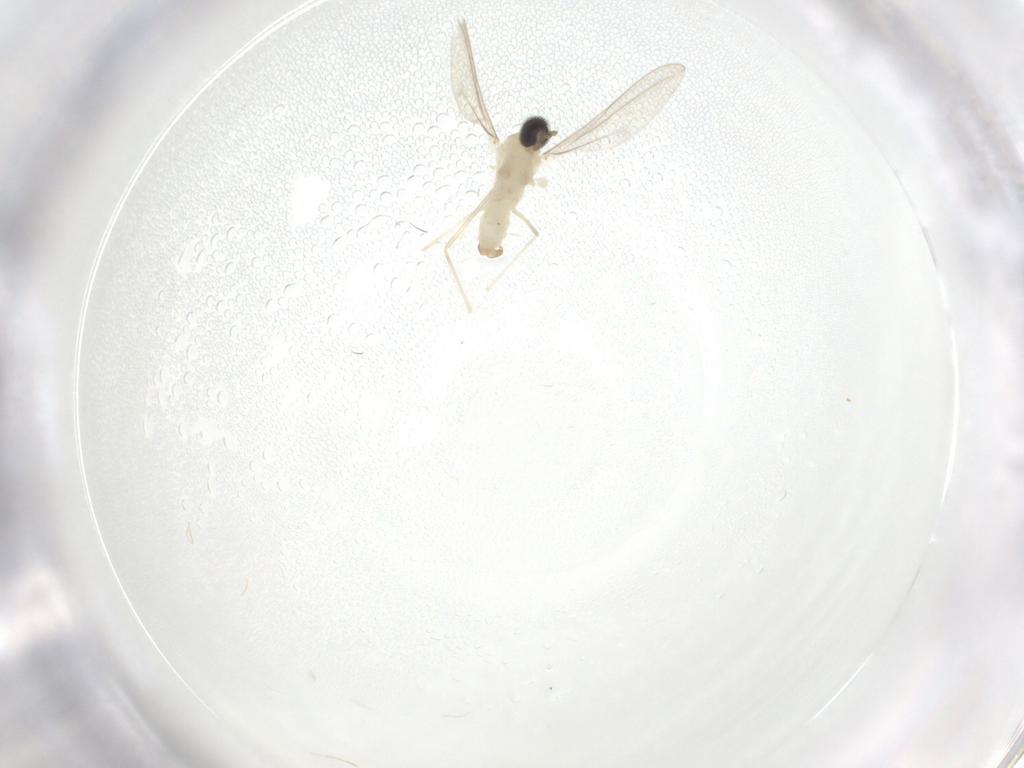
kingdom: Animalia
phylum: Arthropoda
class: Insecta
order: Diptera
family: Cecidomyiidae
